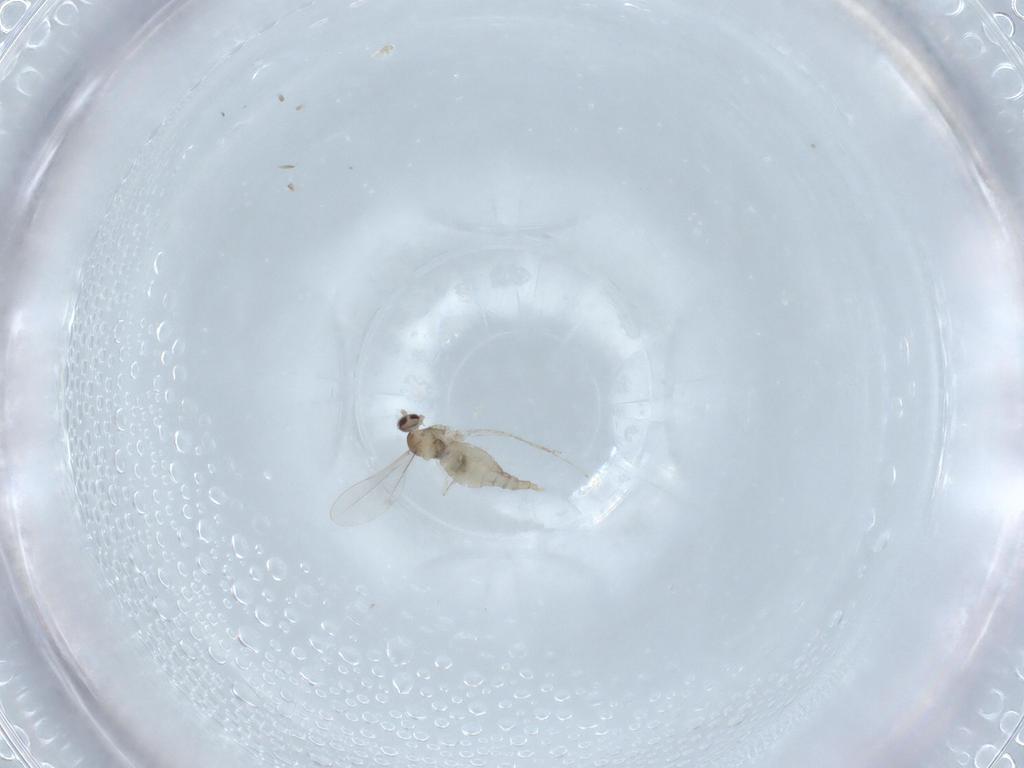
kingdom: Animalia
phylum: Arthropoda
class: Insecta
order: Diptera
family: Cecidomyiidae
